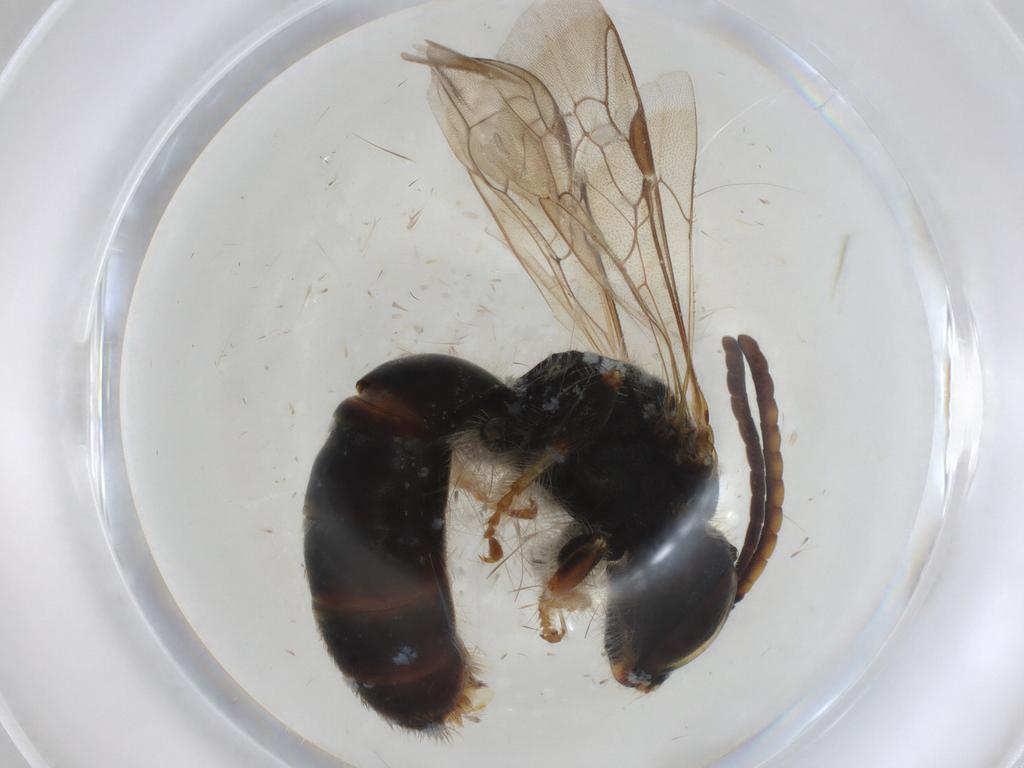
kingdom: Animalia
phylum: Arthropoda
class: Insecta
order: Hymenoptera
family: Halictidae
